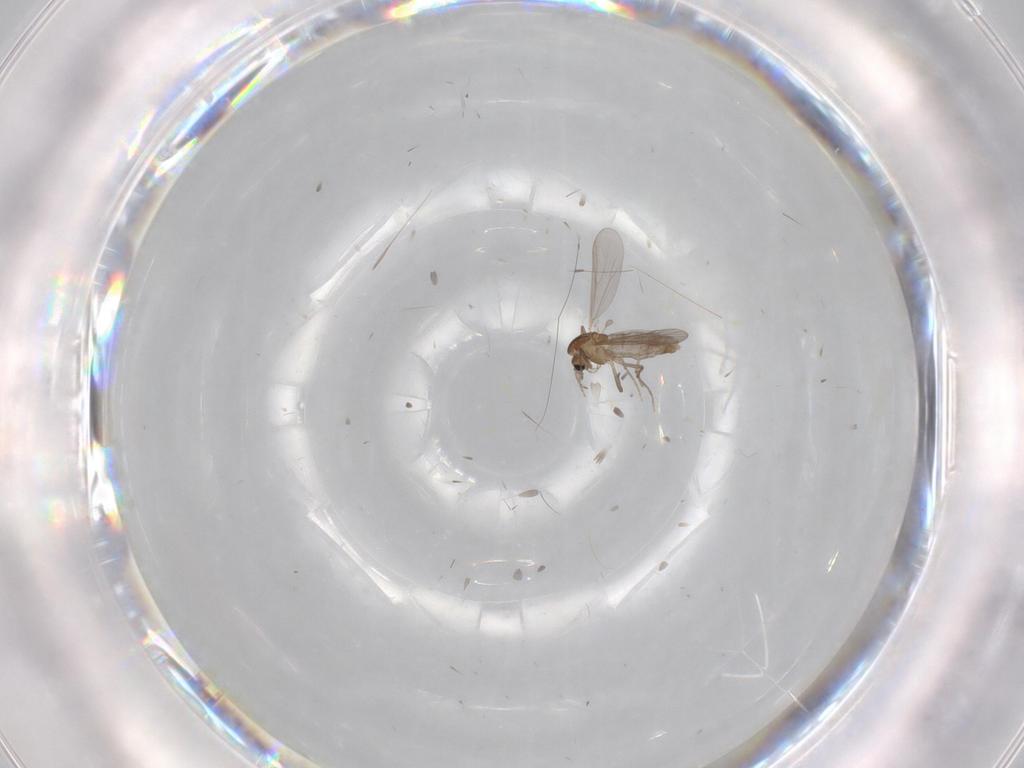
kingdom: Animalia
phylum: Arthropoda
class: Insecta
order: Diptera
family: Chironomidae
